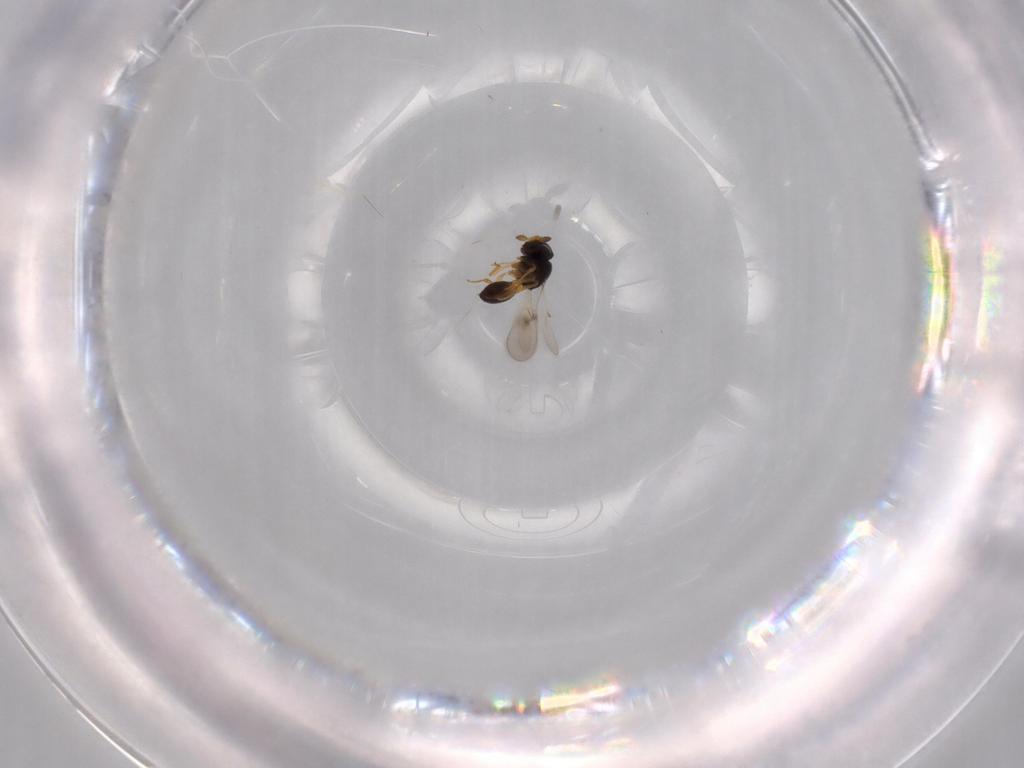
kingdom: Animalia
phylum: Arthropoda
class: Insecta
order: Hymenoptera
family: Scelionidae
